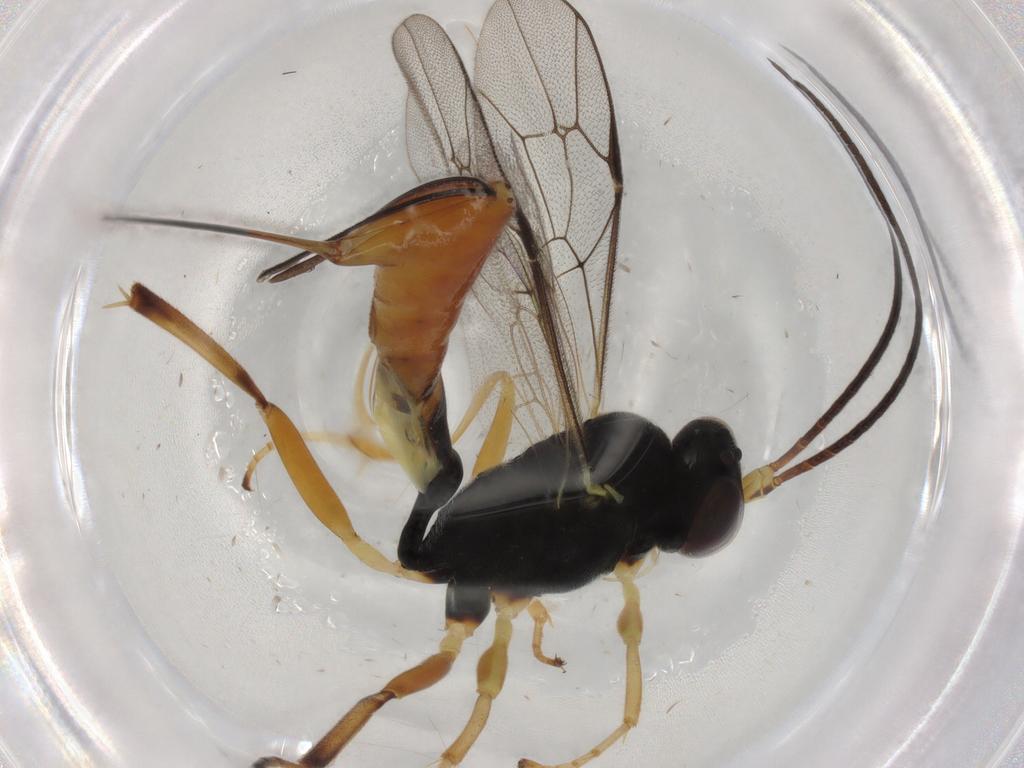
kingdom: Animalia
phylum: Arthropoda
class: Insecta
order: Hymenoptera
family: Ichneumonidae
